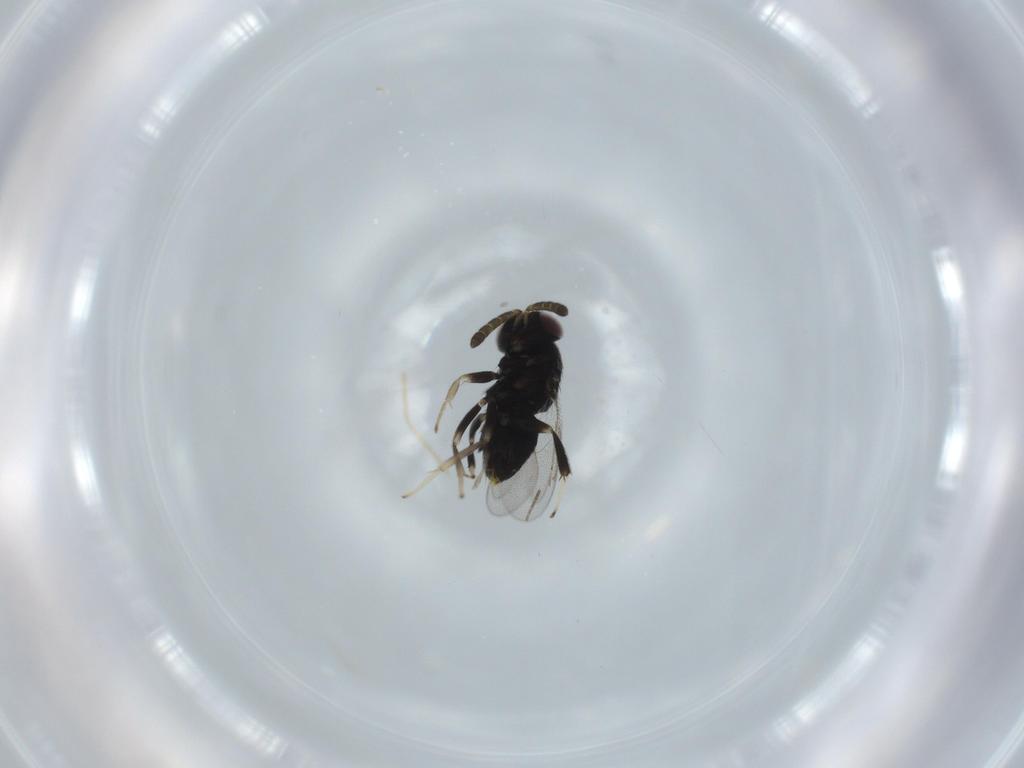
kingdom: Animalia
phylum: Arthropoda
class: Insecta
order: Hymenoptera
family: Aphelinidae
